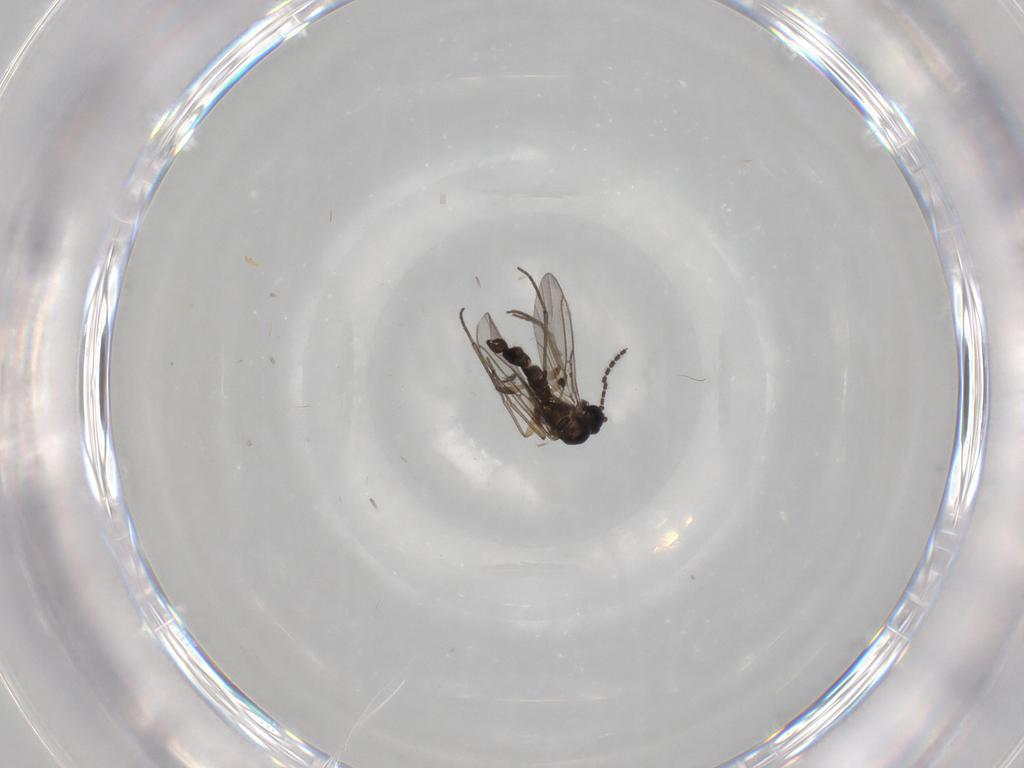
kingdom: Animalia
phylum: Arthropoda
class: Insecta
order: Diptera
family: Sciaridae
